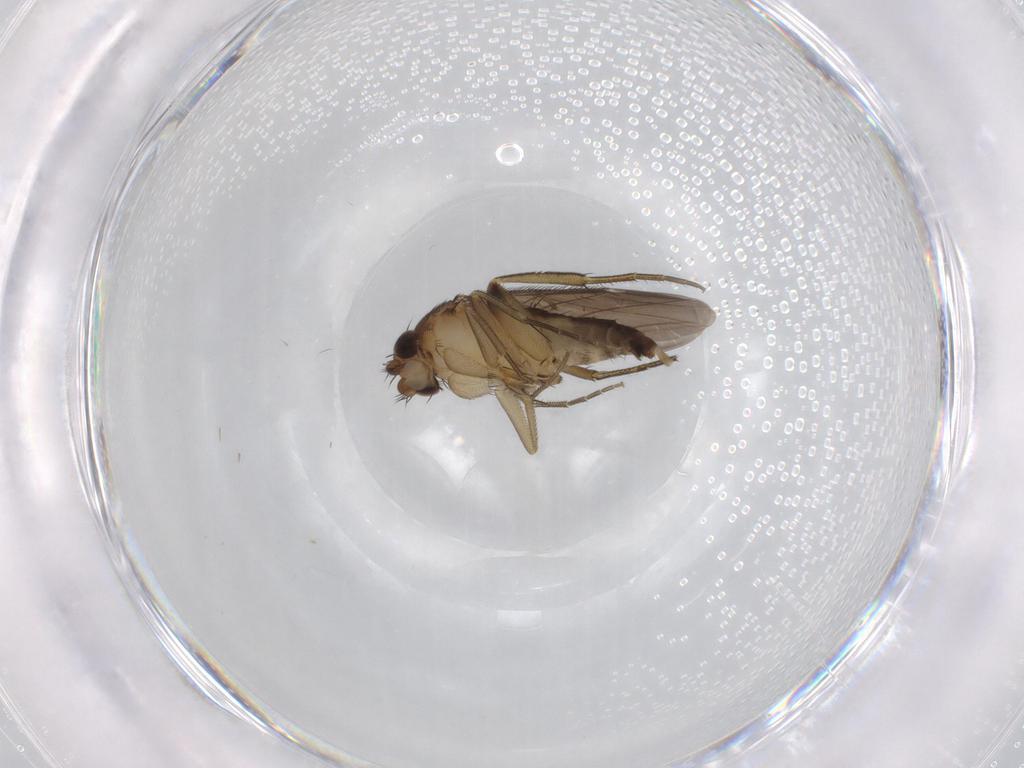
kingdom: Animalia
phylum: Arthropoda
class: Insecta
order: Diptera
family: Phoridae
